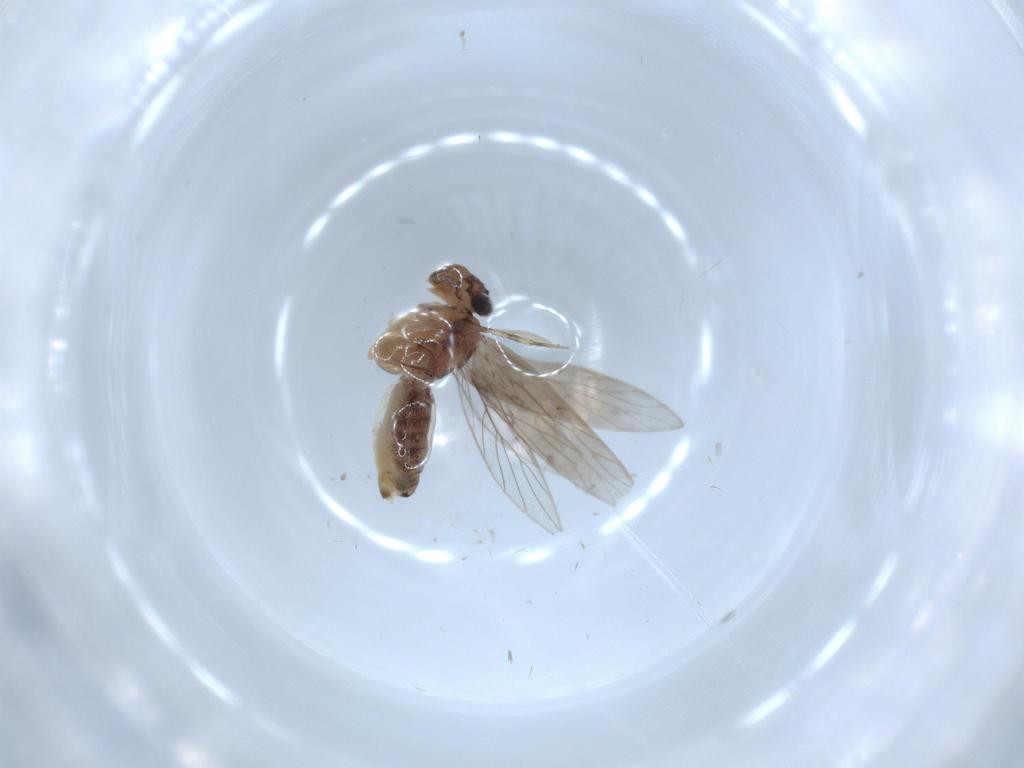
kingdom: Animalia
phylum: Arthropoda
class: Insecta
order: Psocodea
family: Lepidopsocidae
